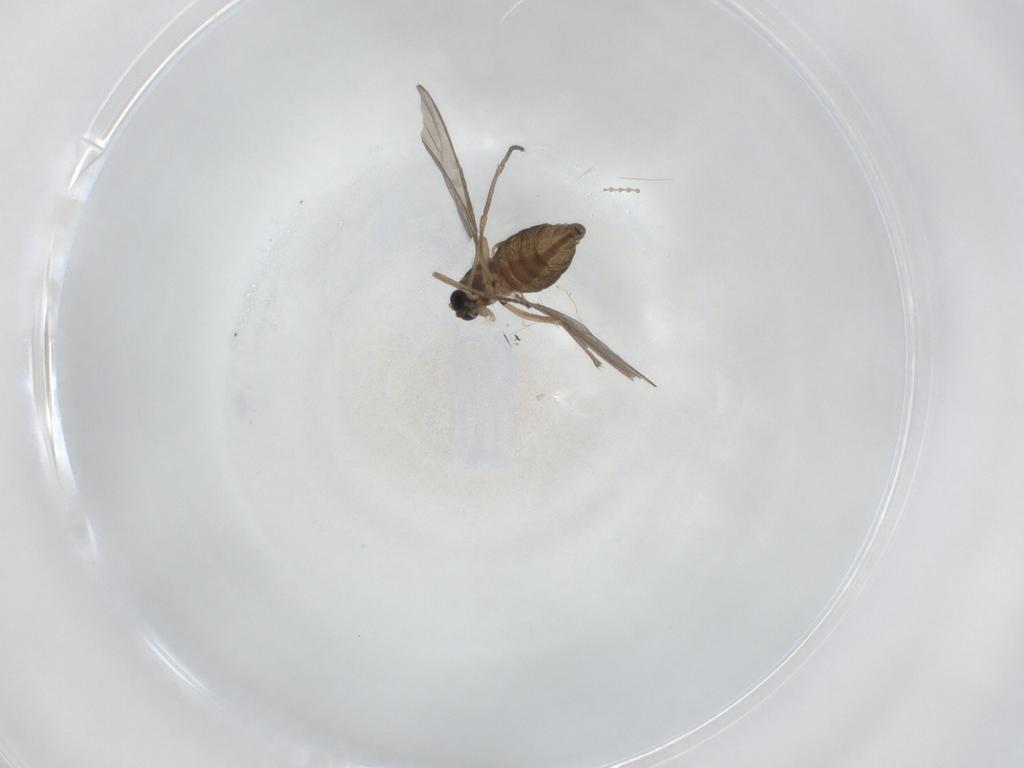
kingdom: Animalia
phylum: Arthropoda
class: Insecta
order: Diptera
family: Sciaridae
